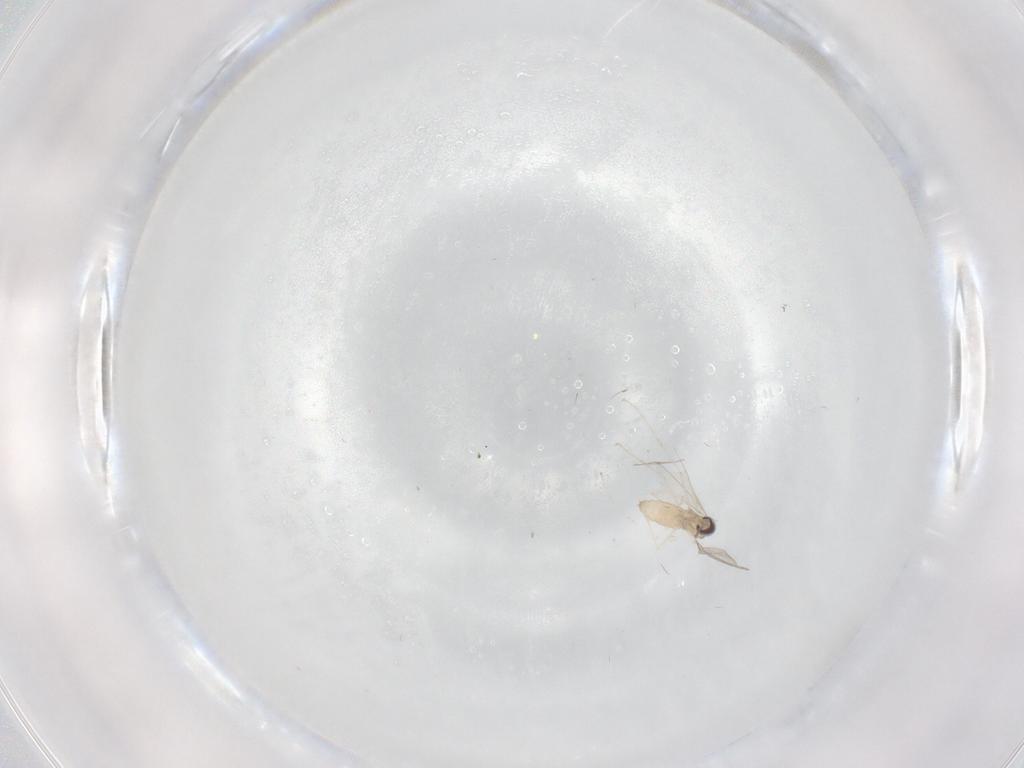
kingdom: Animalia
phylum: Arthropoda
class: Insecta
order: Diptera
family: Cecidomyiidae
